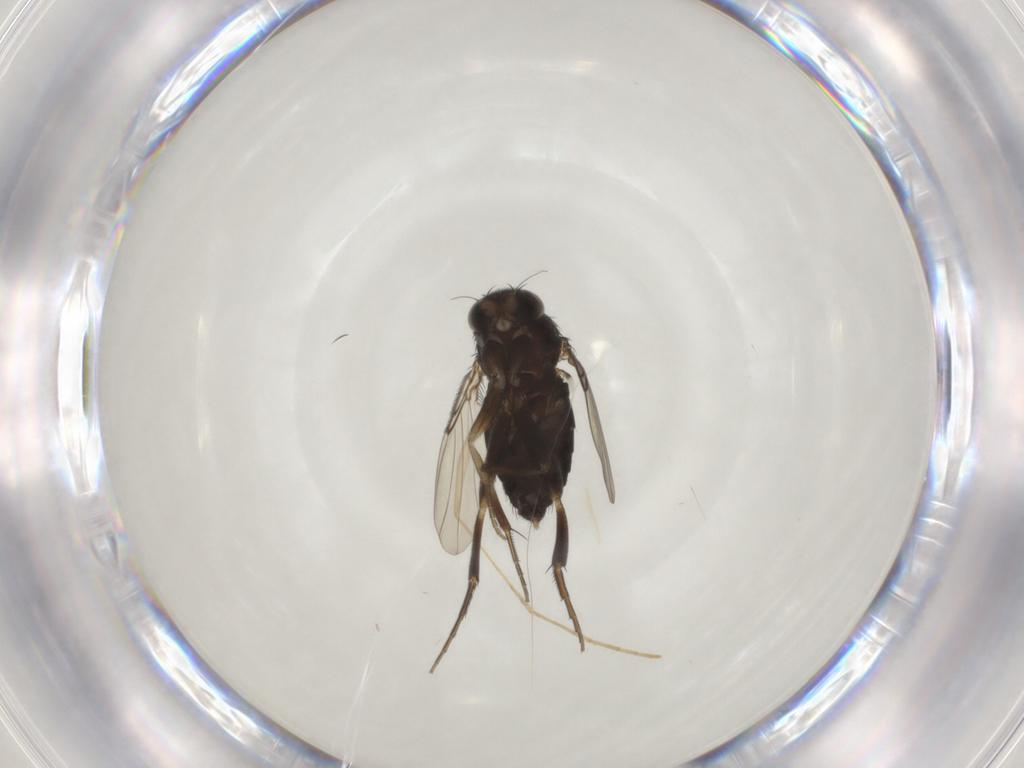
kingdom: Animalia
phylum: Arthropoda
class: Insecta
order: Diptera
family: Phoridae
